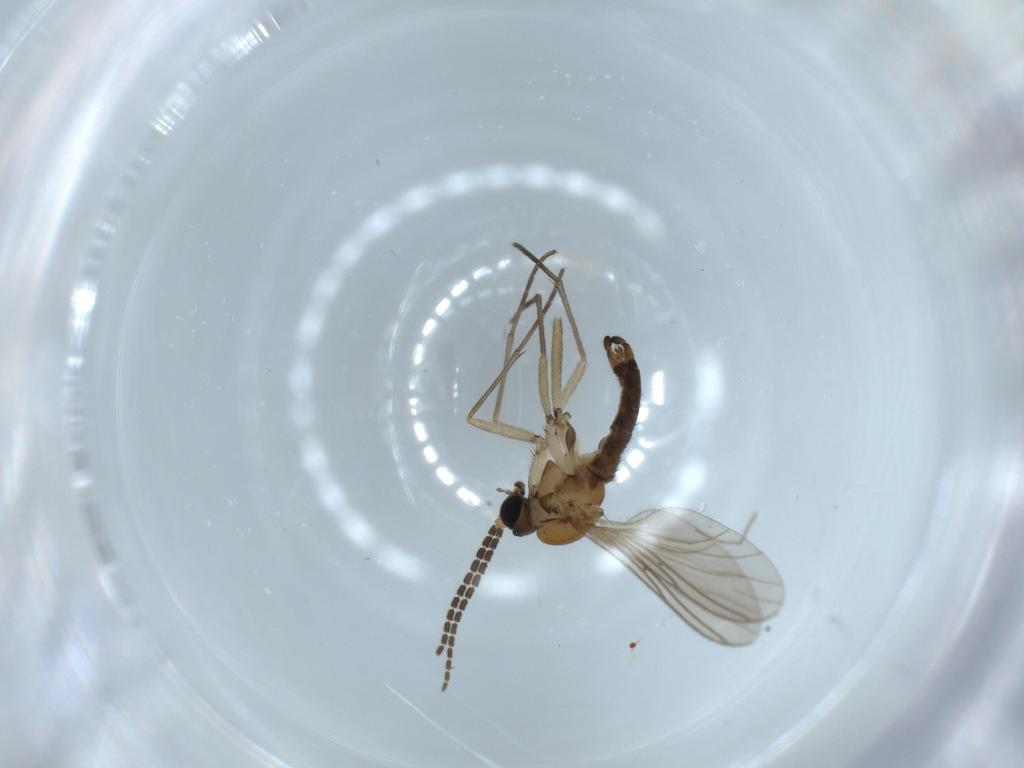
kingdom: Animalia
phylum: Arthropoda
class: Insecta
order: Diptera
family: Sciaridae
